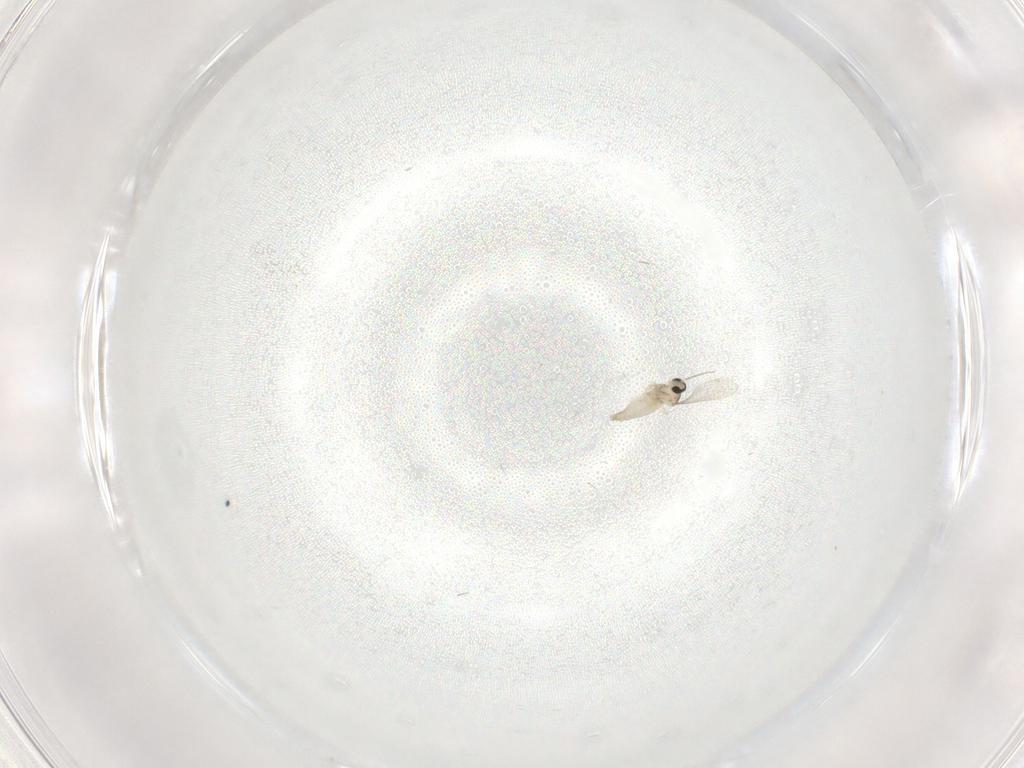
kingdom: Animalia
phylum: Arthropoda
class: Insecta
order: Diptera
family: Cecidomyiidae
